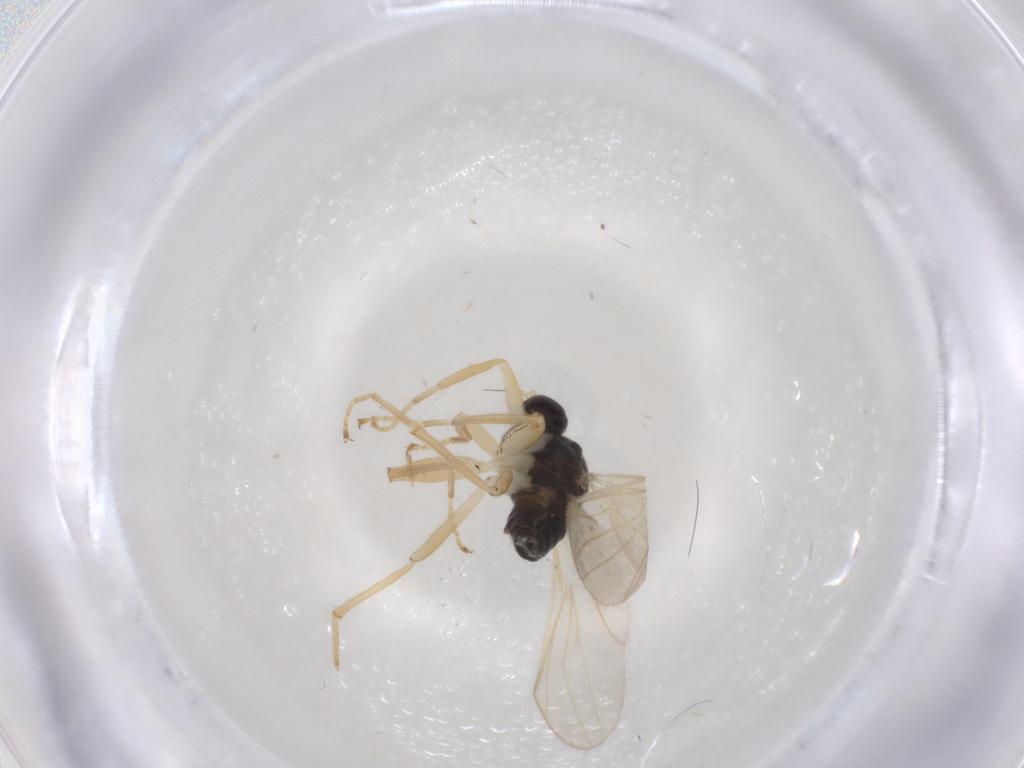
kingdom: Animalia
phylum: Arthropoda
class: Insecta
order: Diptera
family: Hybotidae
